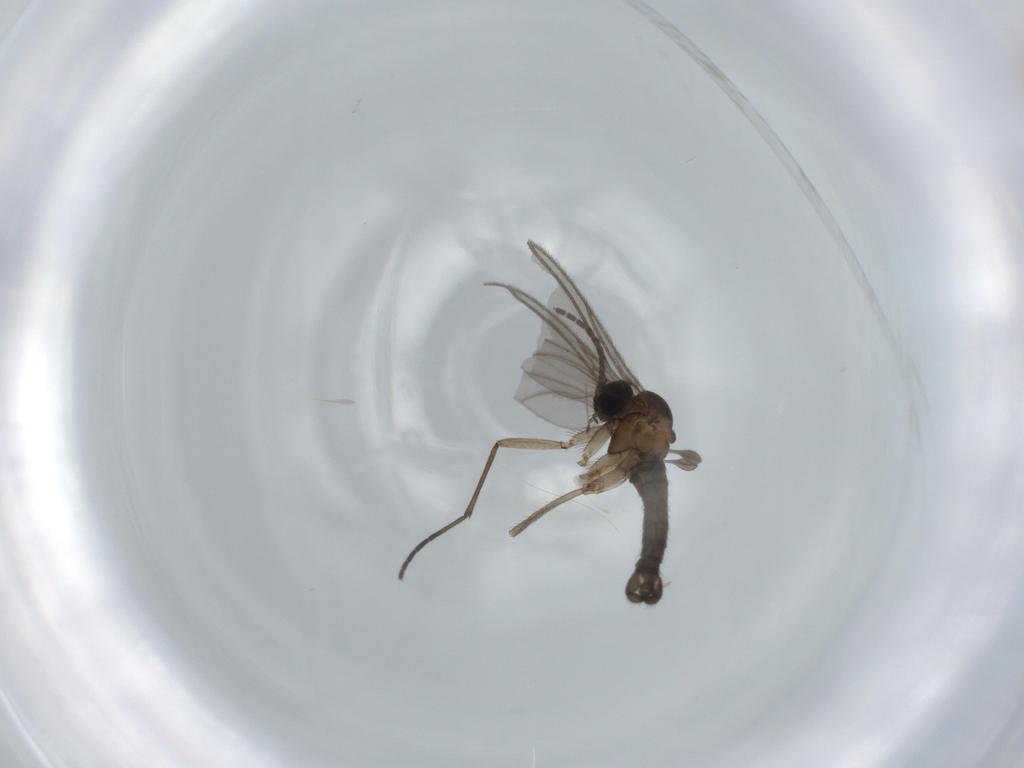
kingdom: Animalia
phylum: Arthropoda
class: Insecta
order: Diptera
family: Sciaridae
